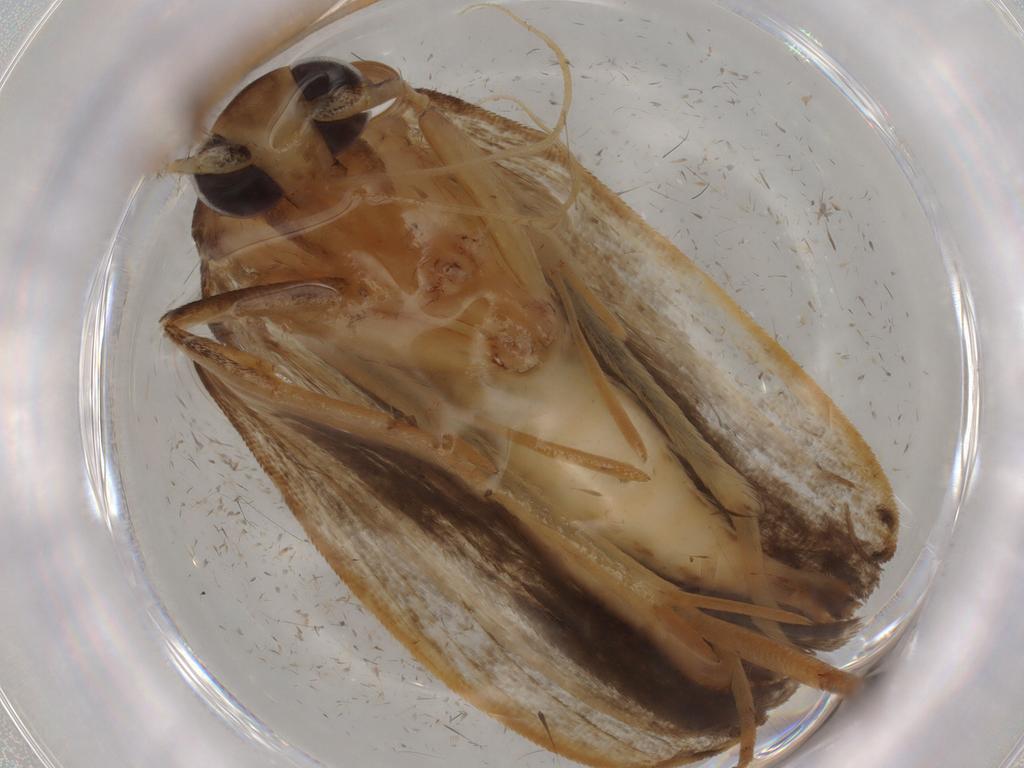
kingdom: Animalia
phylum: Arthropoda
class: Insecta
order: Lepidoptera
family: Gelechiidae
